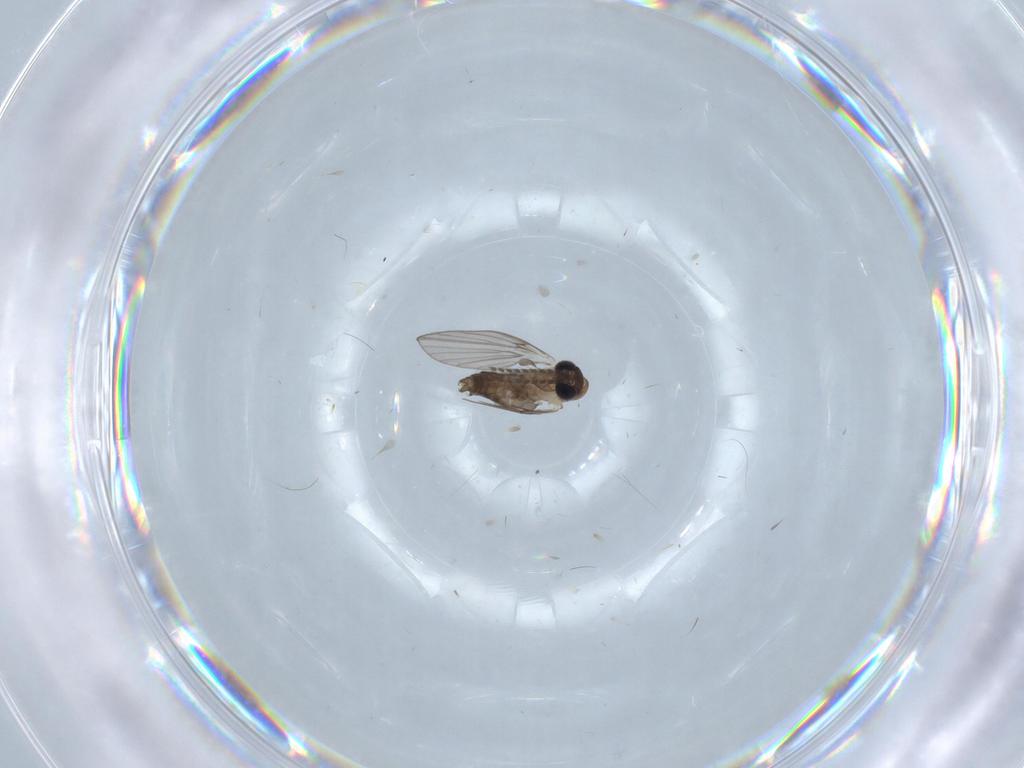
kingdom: Animalia
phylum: Arthropoda
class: Insecta
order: Diptera
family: Psychodidae
